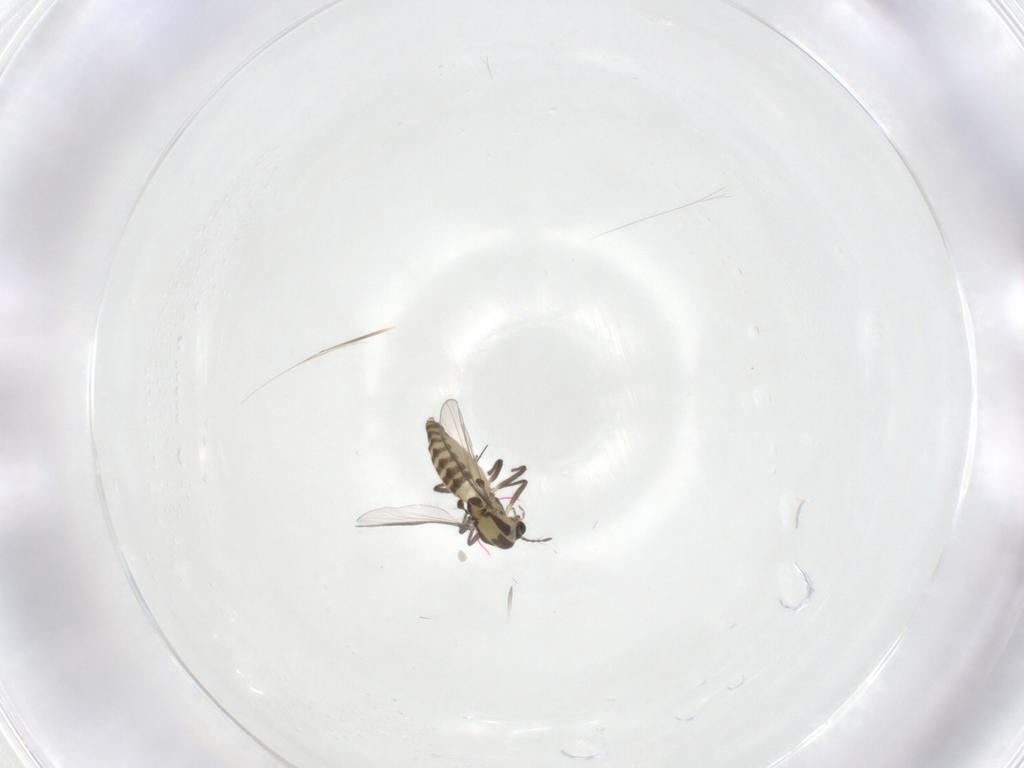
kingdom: Animalia
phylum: Arthropoda
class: Insecta
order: Diptera
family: Chironomidae
